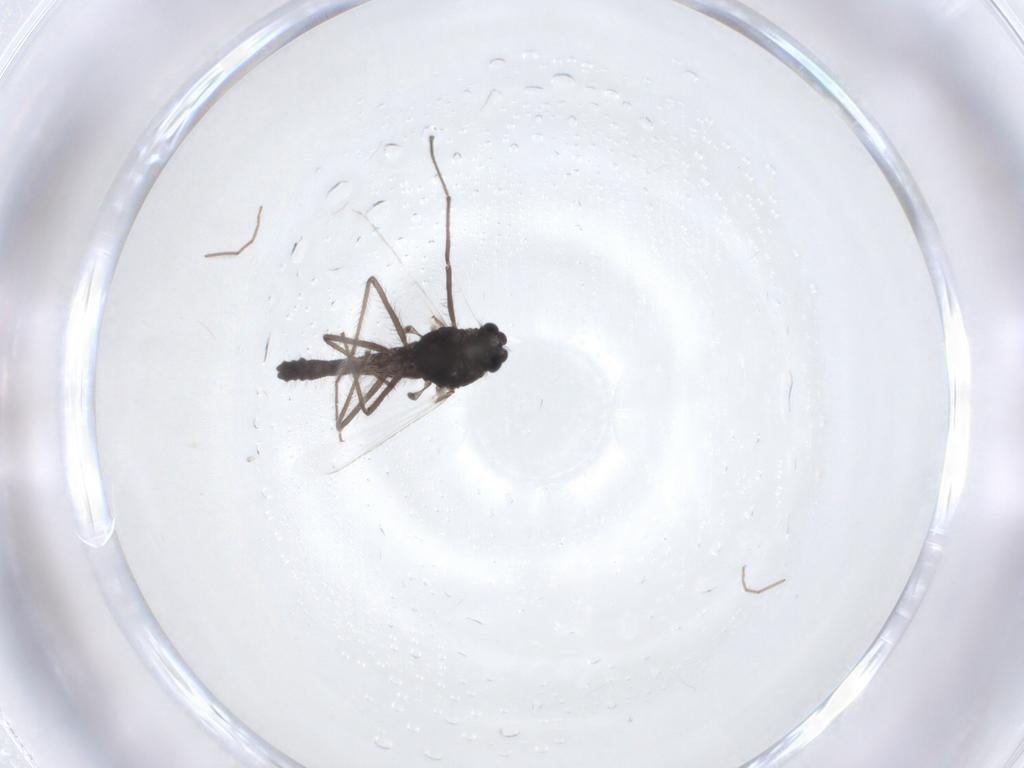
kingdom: Animalia
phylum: Arthropoda
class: Insecta
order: Diptera
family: Chironomidae
